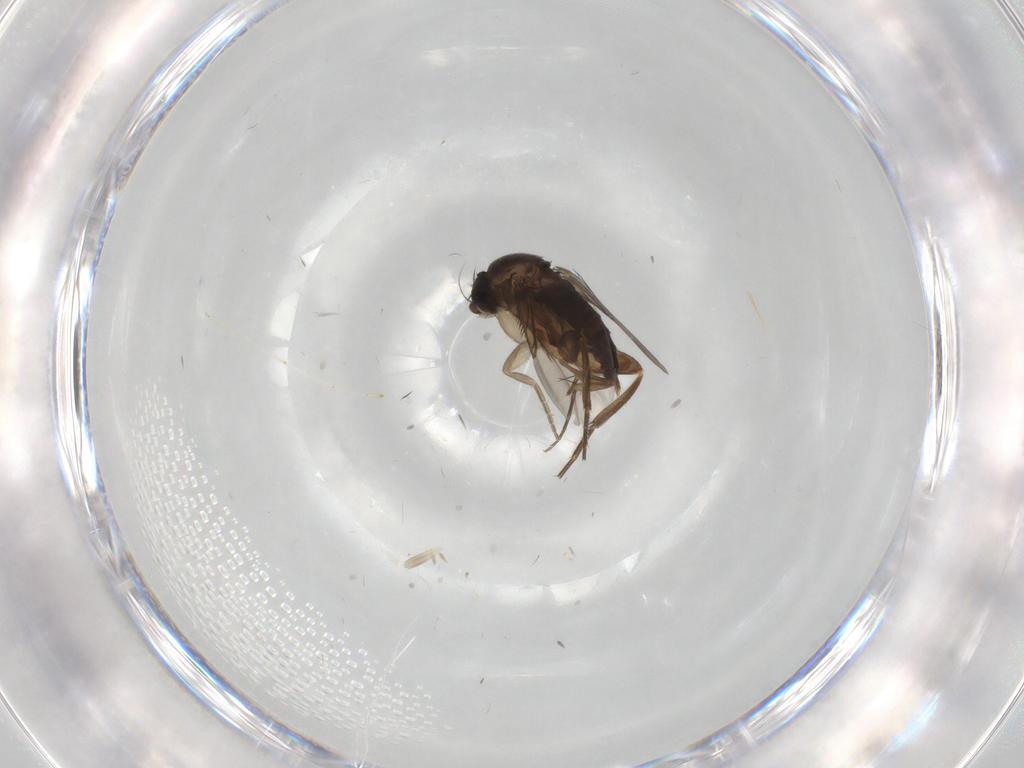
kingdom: Animalia
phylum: Arthropoda
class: Insecta
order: Diptera
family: Phoridae
